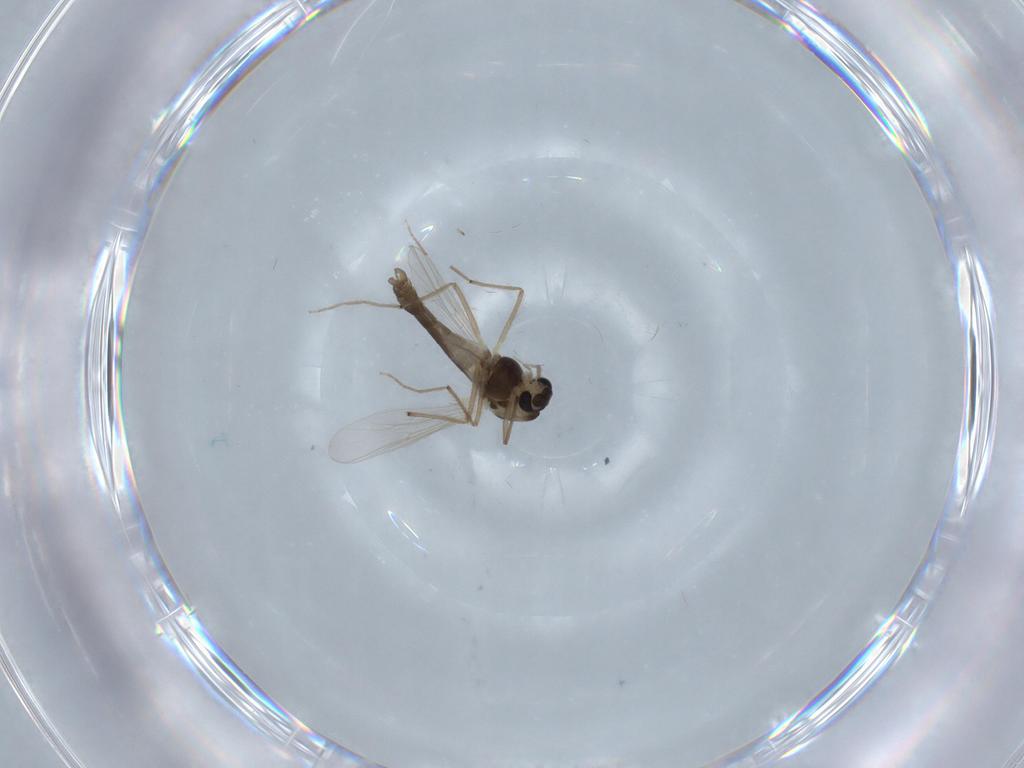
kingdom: Animalia
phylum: Arthropoda
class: Insecta
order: Diptera
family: Chironomidae
